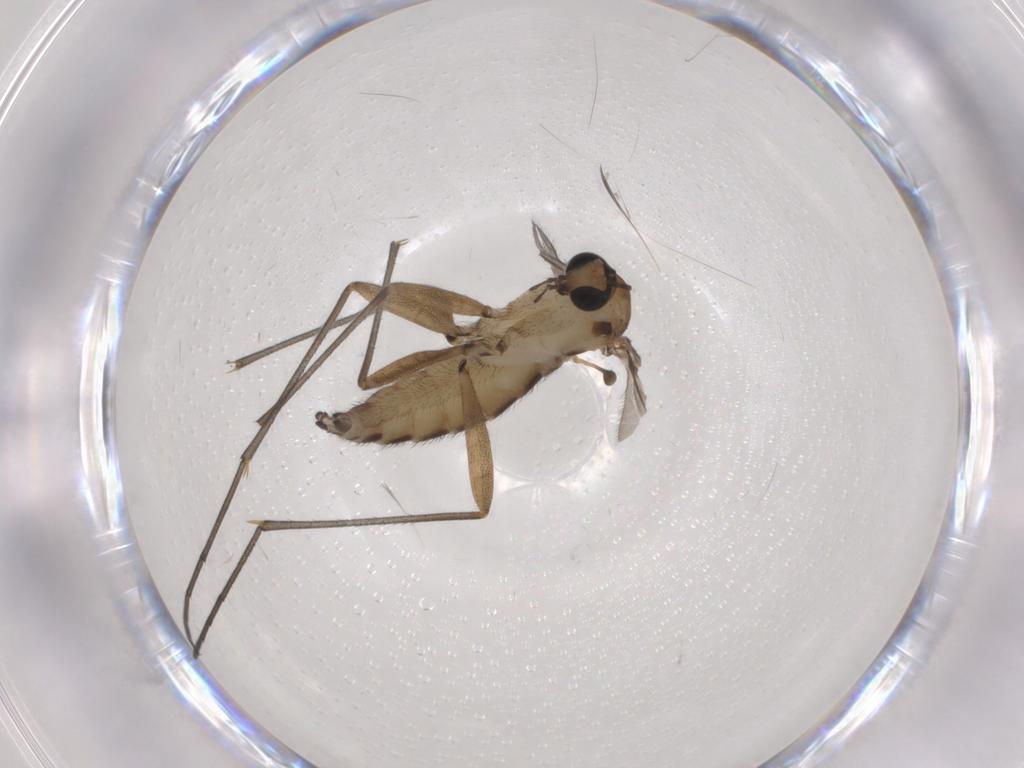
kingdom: Animalia
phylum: Arthropoda
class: Insecta
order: Diptera
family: Sciaridae
